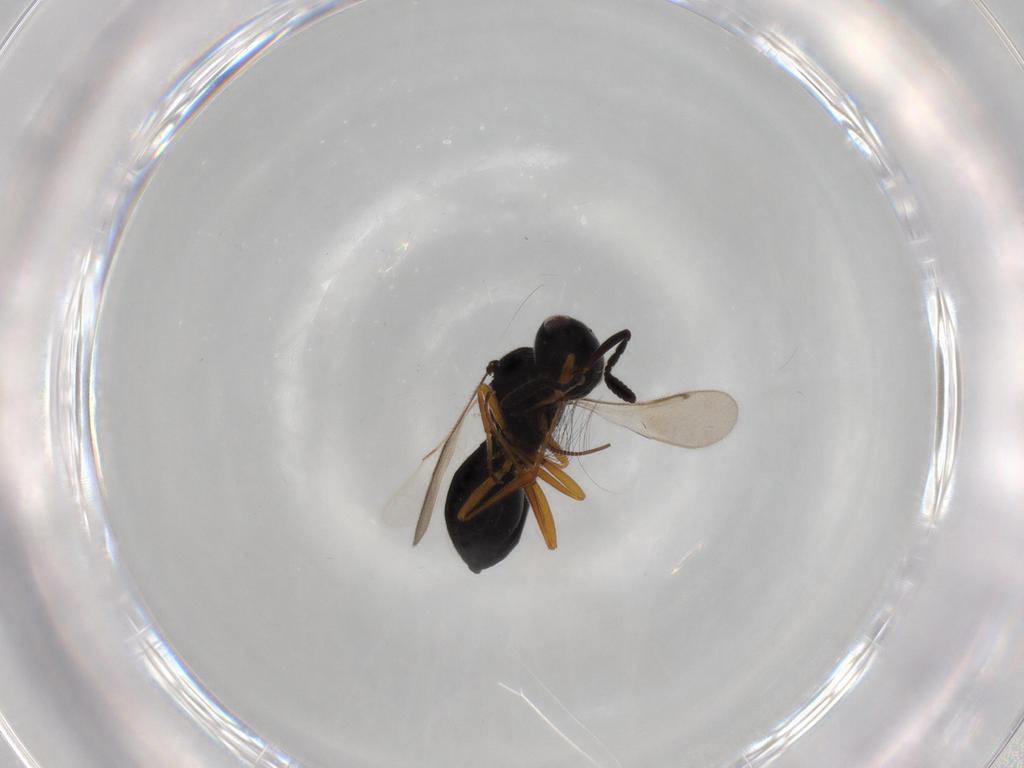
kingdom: Animalia
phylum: Arthropoda
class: Insecta
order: Hymenoptera
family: Scelionidae
